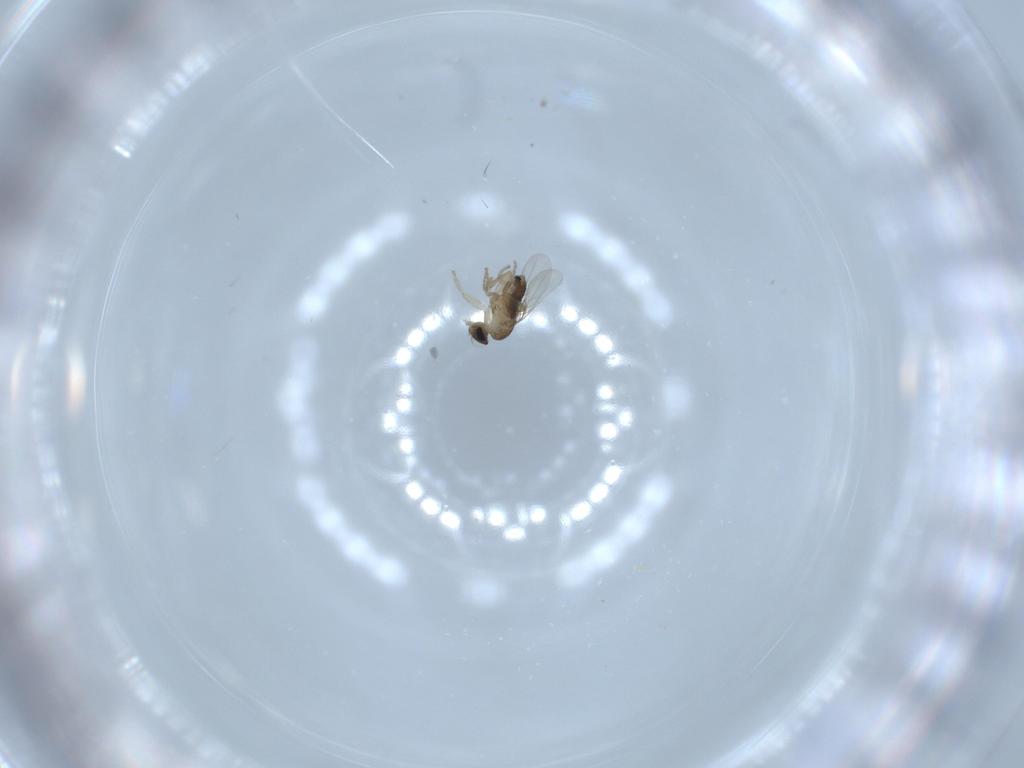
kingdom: Animalia
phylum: Arthropoda
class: Insecta
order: Diptera
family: Phoridae
